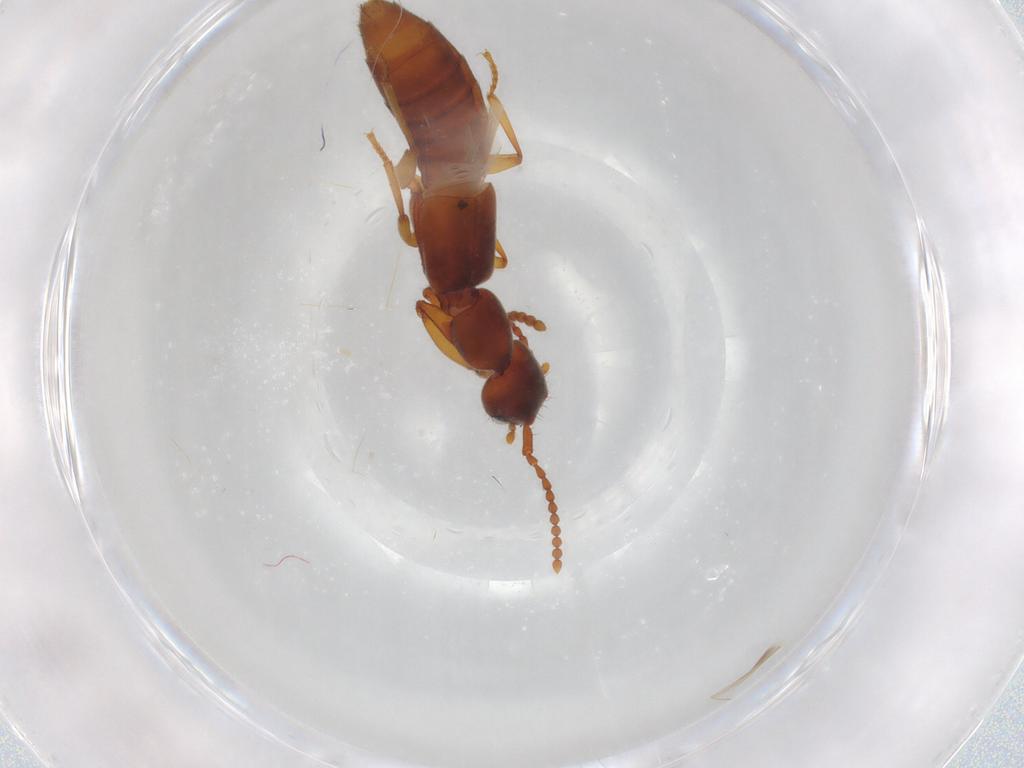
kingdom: Animalia
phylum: Arthropoda
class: Insecta
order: Coleoptera
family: Staphylinidae
